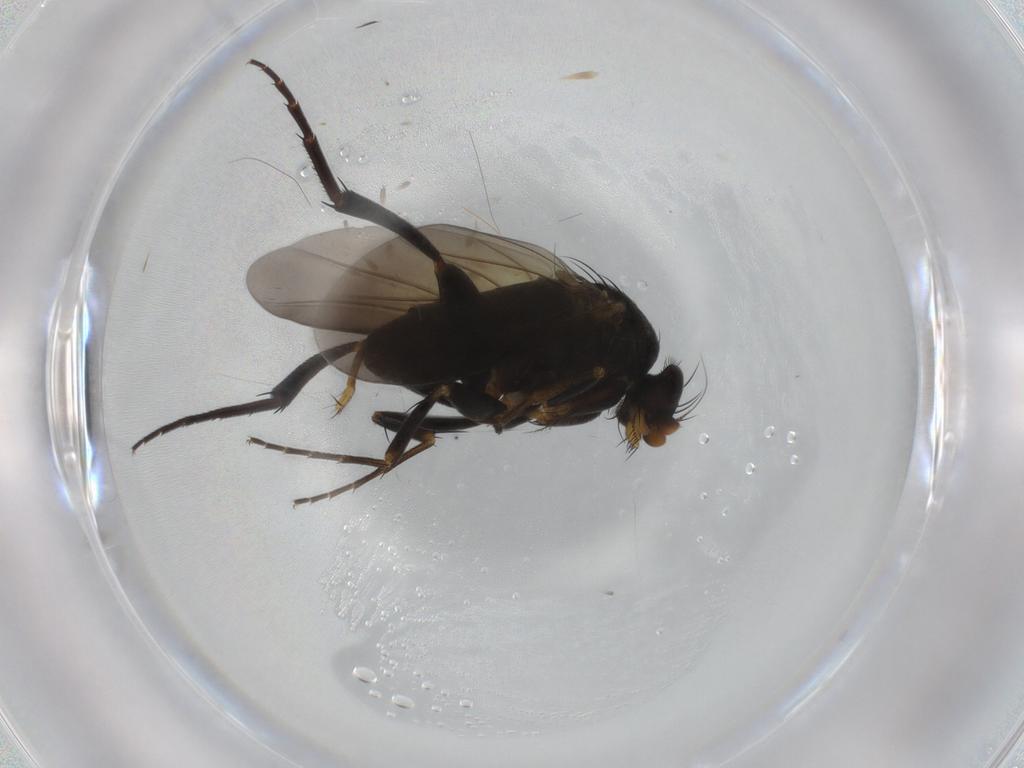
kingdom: Animalia
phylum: Arthropoda
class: Insecta
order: Diptera
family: Phoridae
